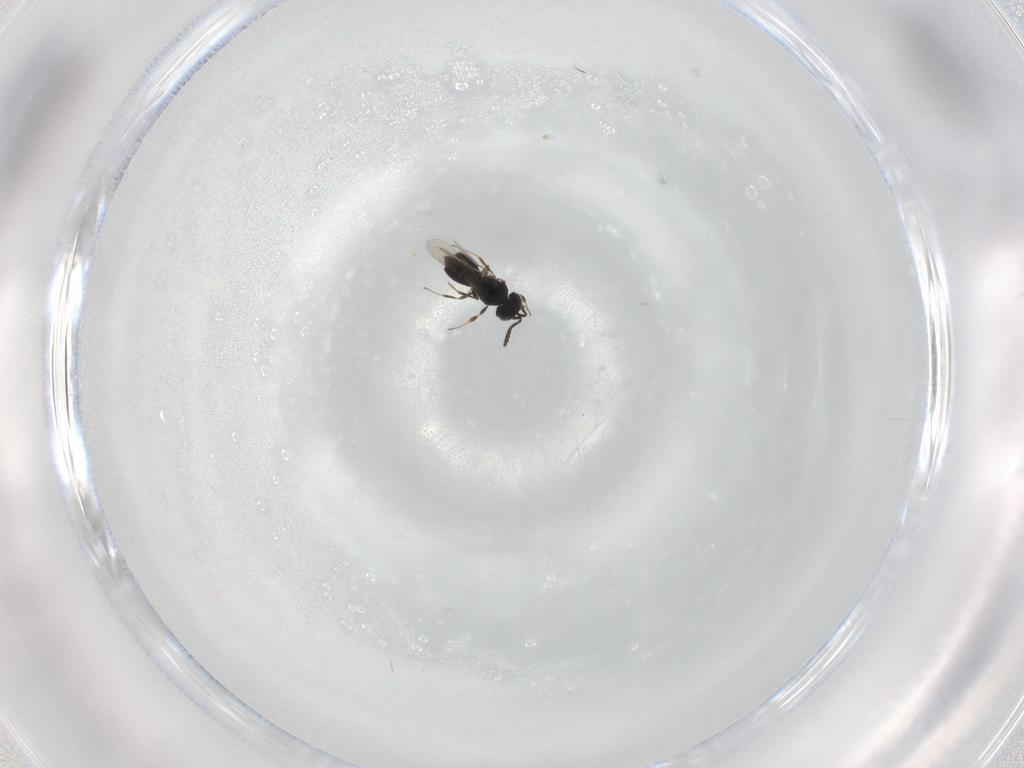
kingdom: Animalia
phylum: Arthropoda
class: Insecta
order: Hymenoptera
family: Scelionidae
